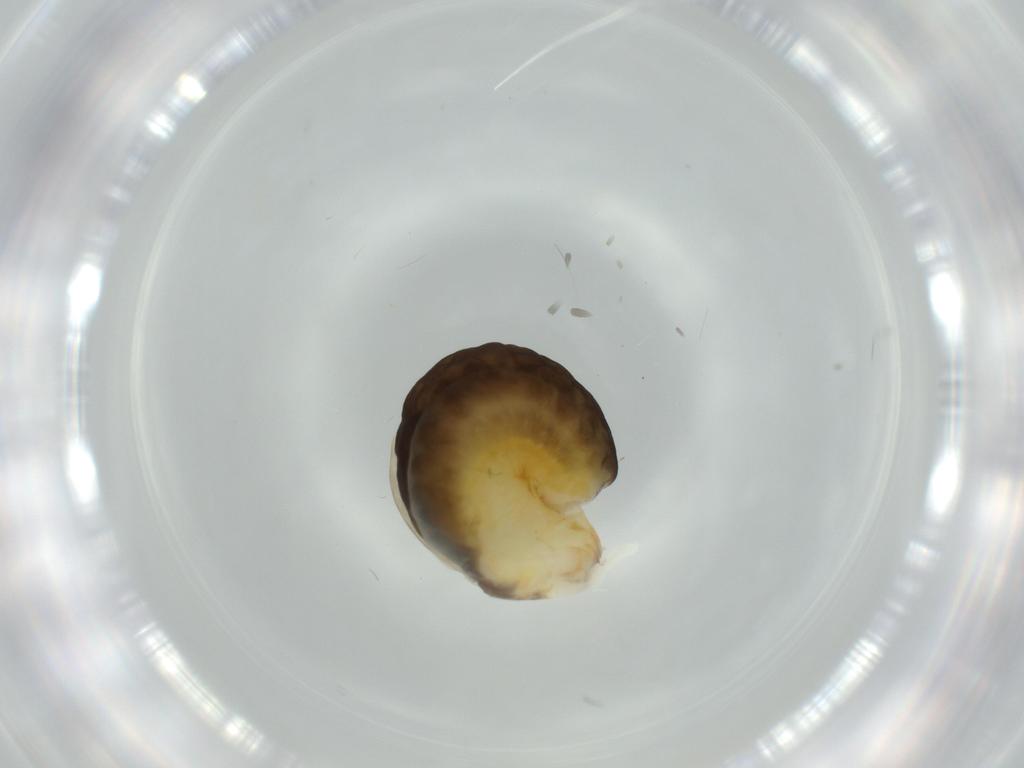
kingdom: Animalia
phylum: Arthropoda
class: Insecta
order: Hymenoptera
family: Dryinidae
